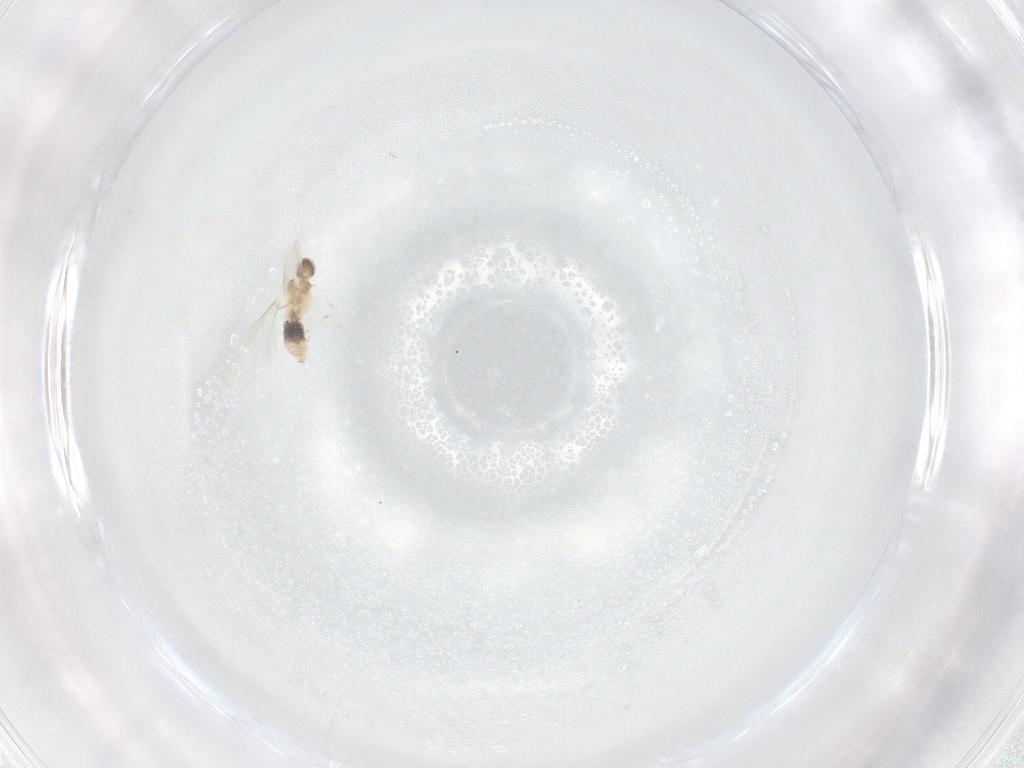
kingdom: Animalia
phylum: Arthropoda
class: Insecta
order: Diptera
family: Cecidomyiidae
